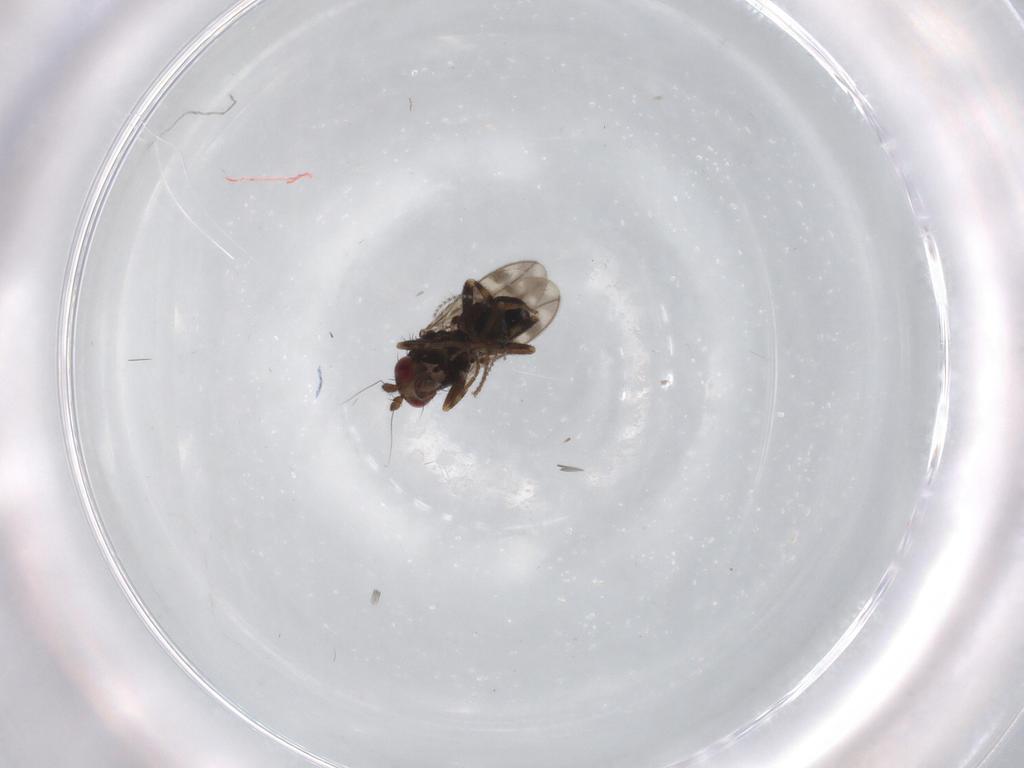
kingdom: Animalia
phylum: Arthropoda
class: Insecta
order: Diptera
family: Sphaeroceridae
